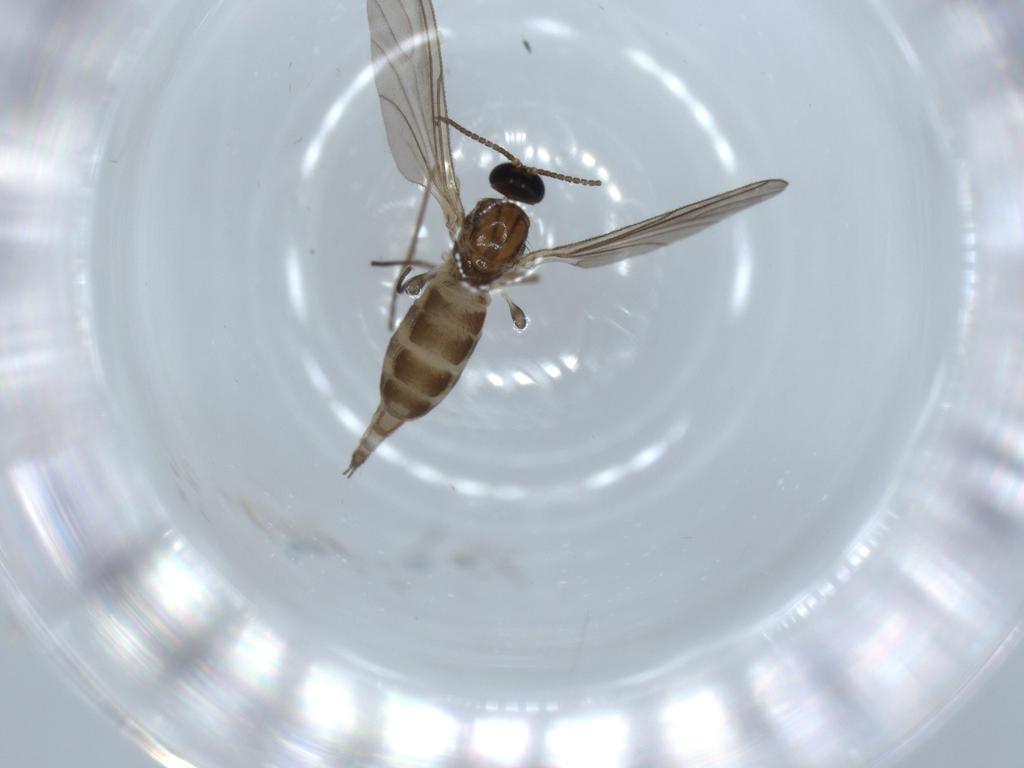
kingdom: Animalia
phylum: Arthropoda
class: Insecta
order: Diptera
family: Sciaridae
